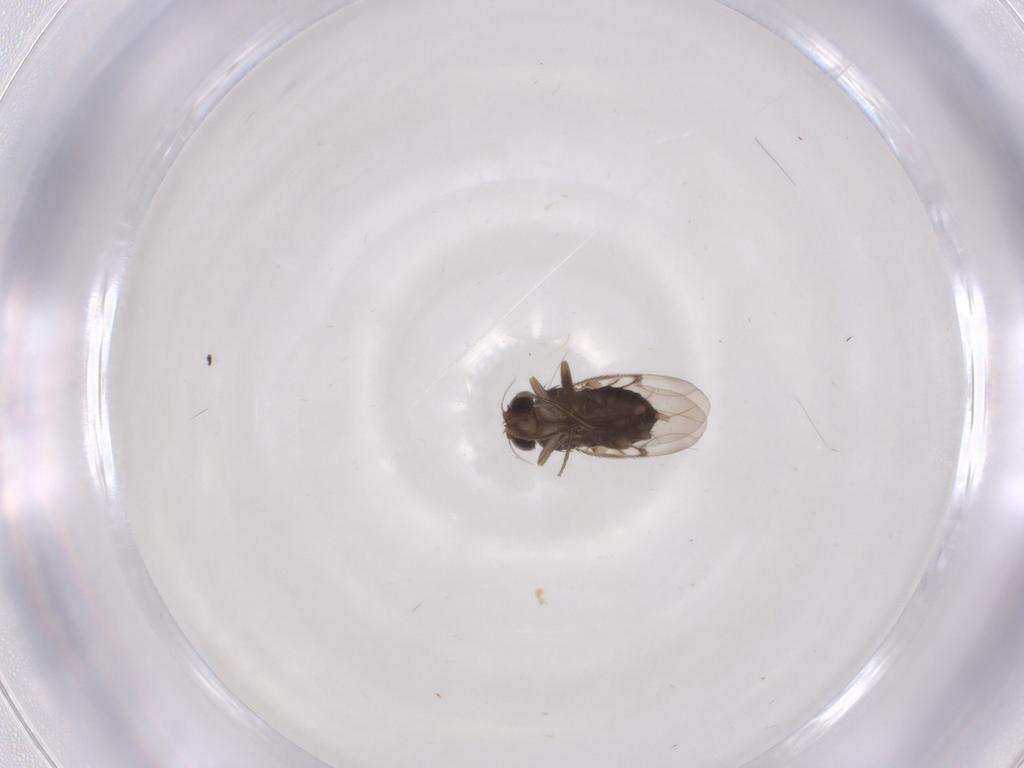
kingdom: Animalia
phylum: Arthropoda
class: Insecta
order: Diptera
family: Phoridae
